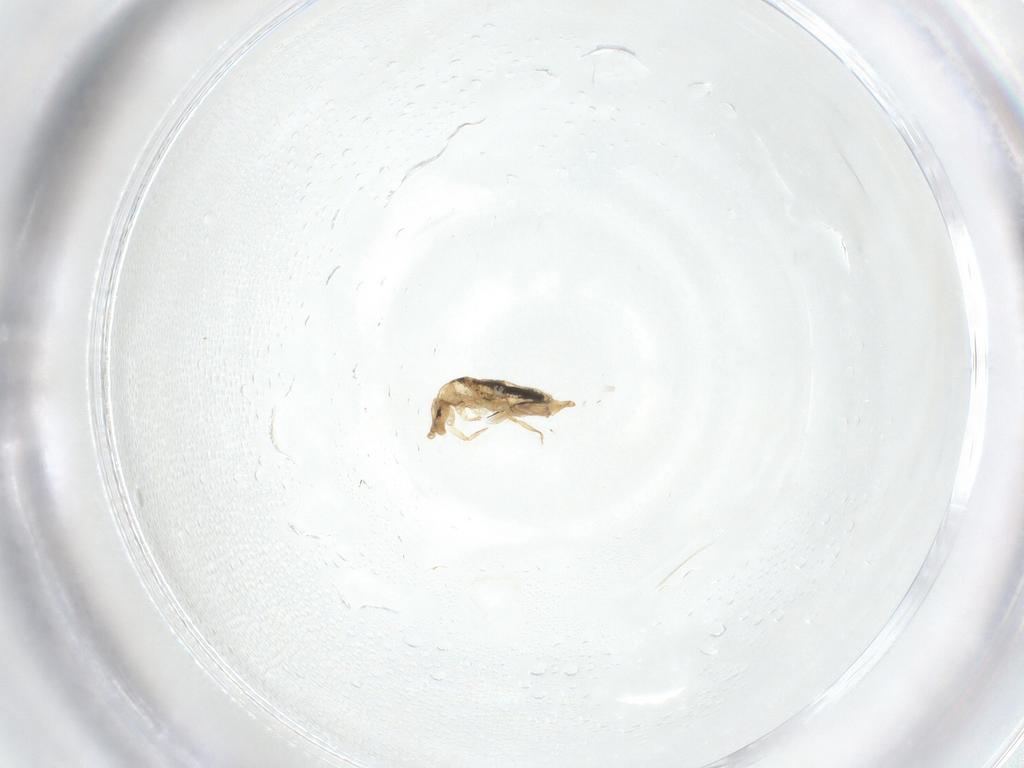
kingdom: Animalia
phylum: Arthropoda
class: Collembola
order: Entomobryomorpha
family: Entomobryidae
